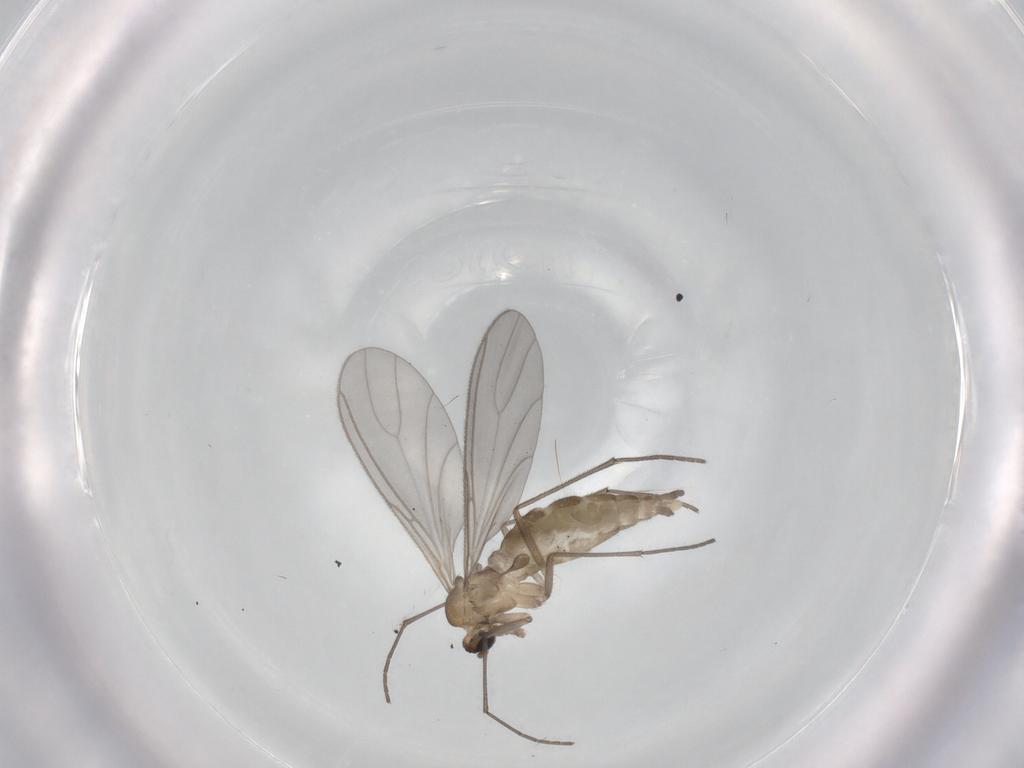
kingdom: Animalia
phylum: Arthropoda
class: Insecta
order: Diptera
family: Sciaridae
